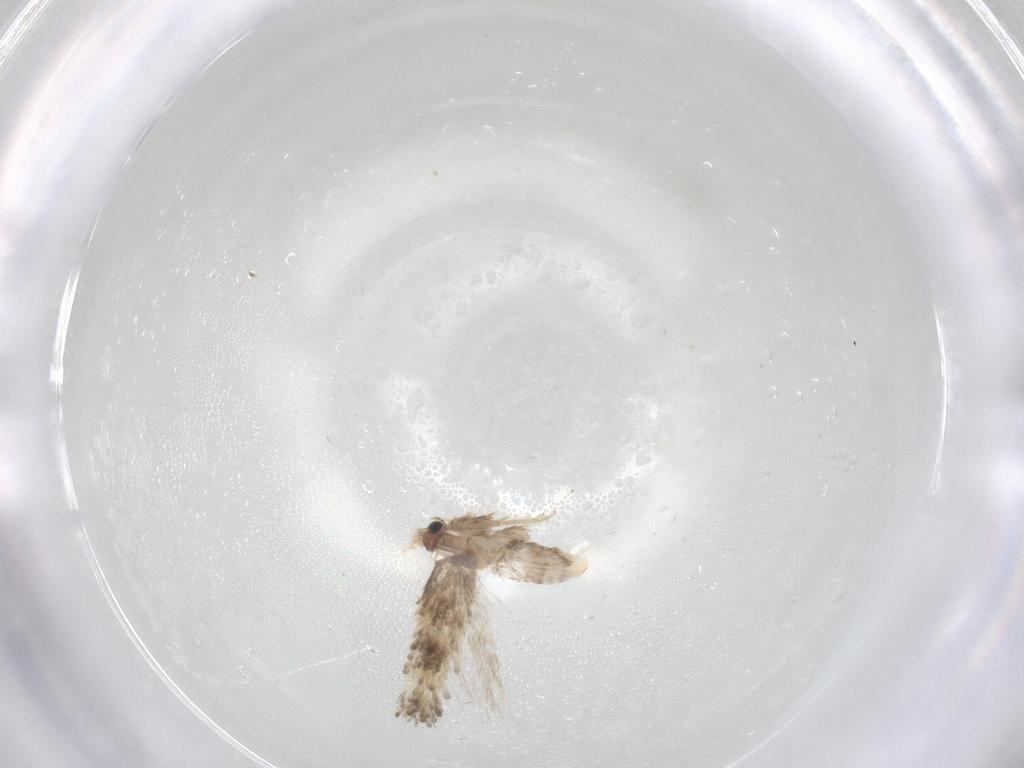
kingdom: Animalia
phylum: Arthropoda
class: Insecta
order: Lepidoptera
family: Nepticulidae
